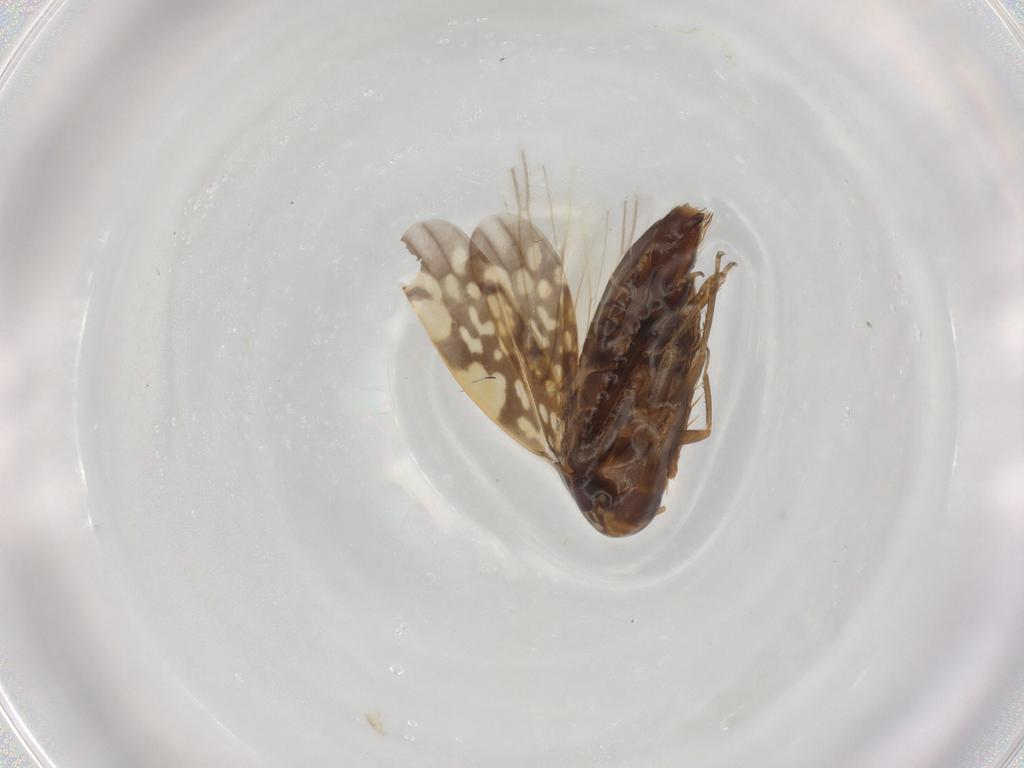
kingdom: Animalia
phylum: Arthropoda
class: Insecta
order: Hemiptera
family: Cicadellidae
